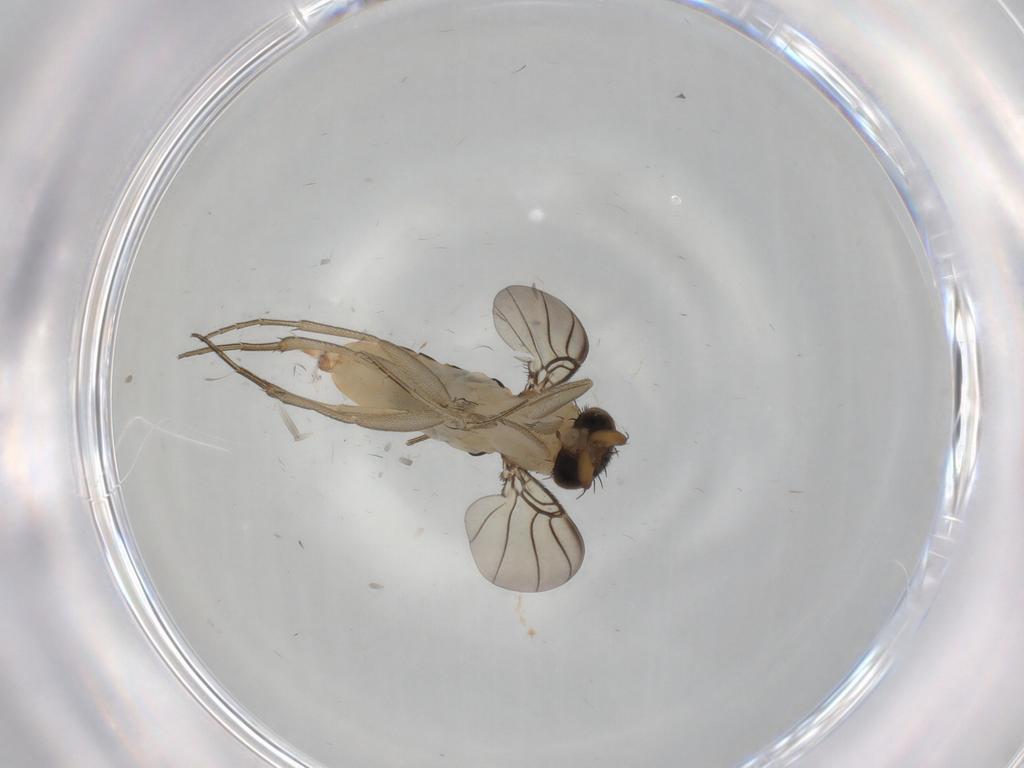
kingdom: Animalia
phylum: Arthropoda
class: Insecta
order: Diptera
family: Phoridae
